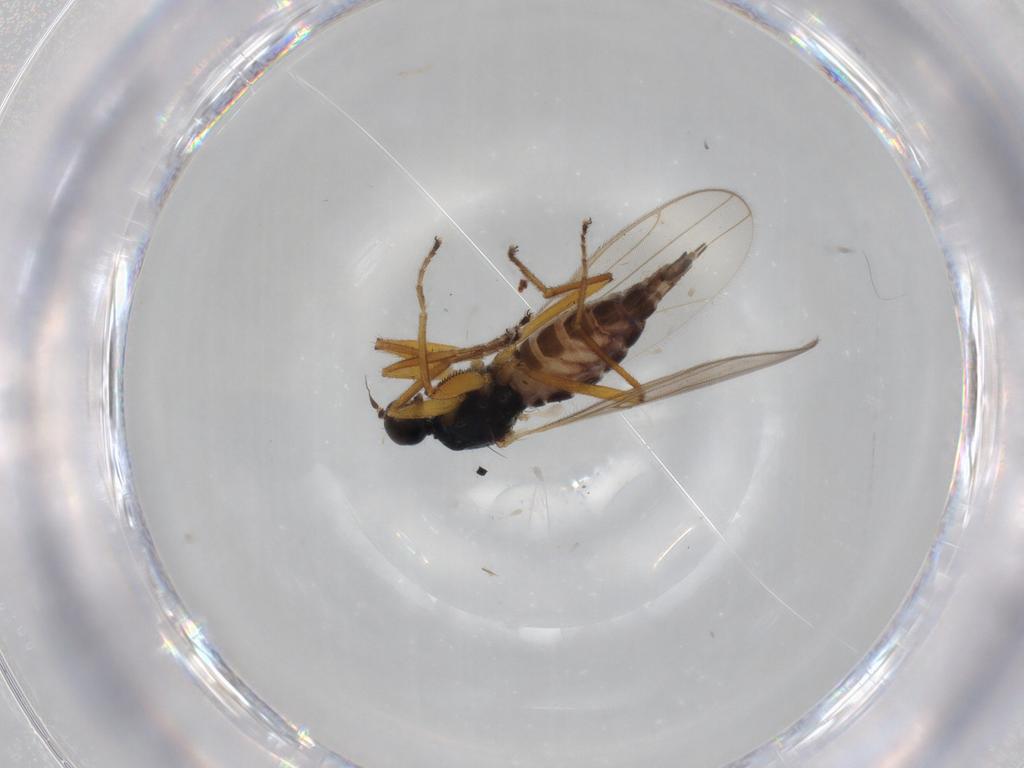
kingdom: Animalia
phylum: Arthropoda
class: Insecta
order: Diptera
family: Hybotidae
